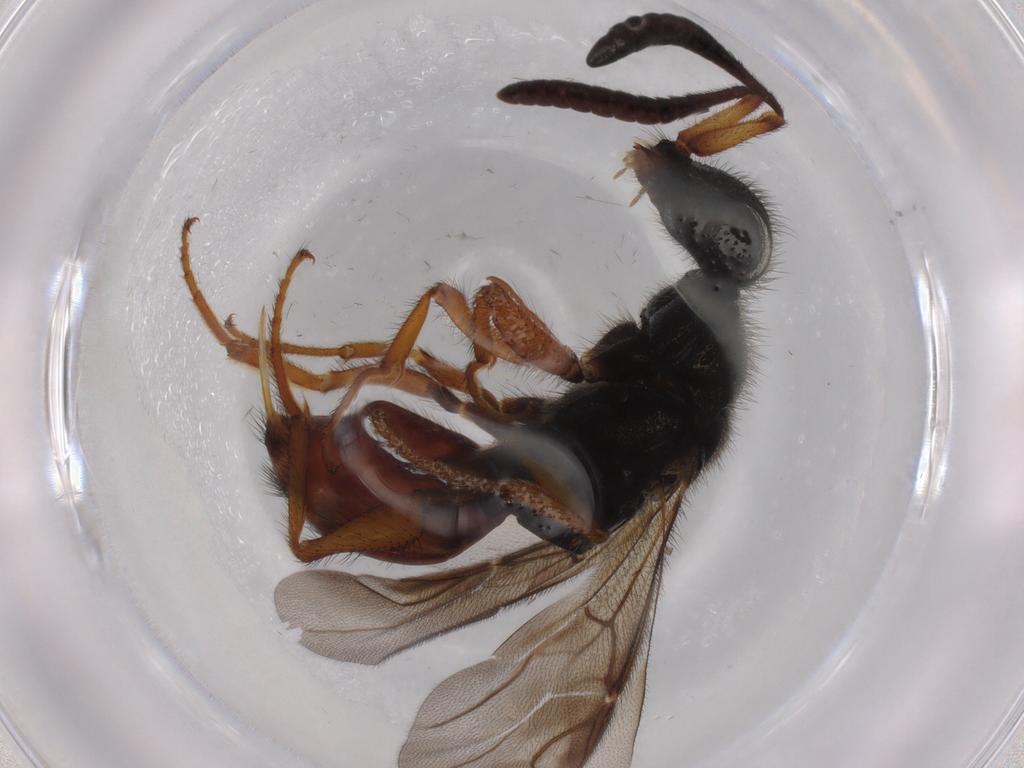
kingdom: Animalia
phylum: Arthropoda
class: Insecta
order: Hymenoptera
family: Chrysididae
